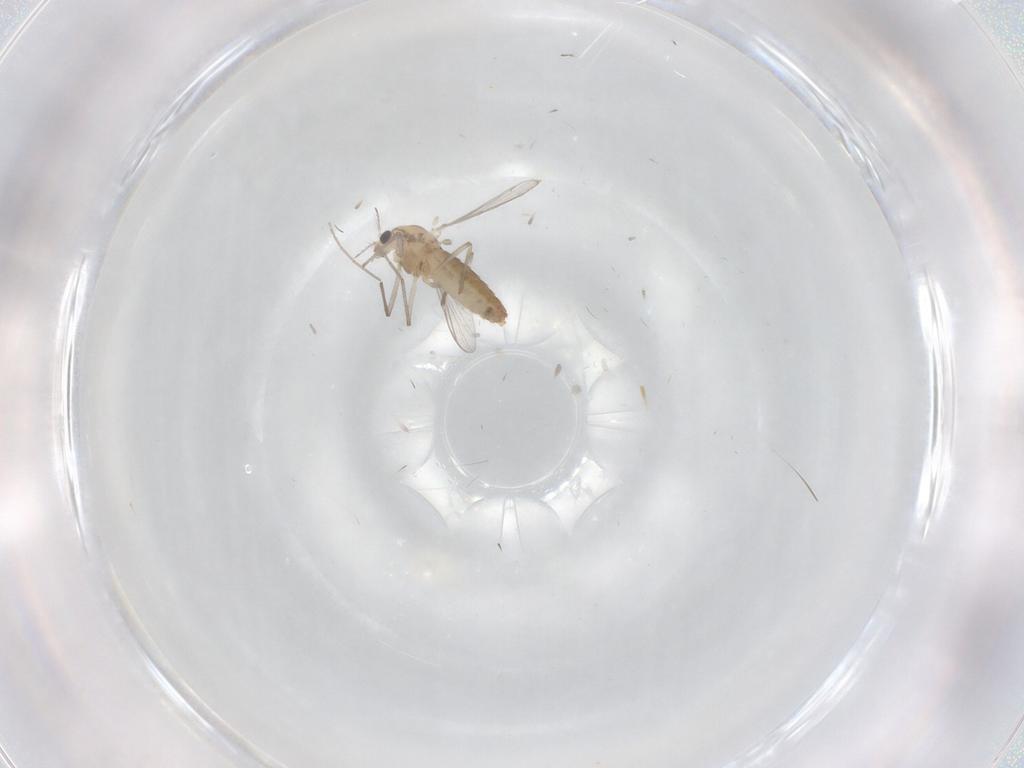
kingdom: Animalia
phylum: Arthropoda
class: Insecta
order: Diptera
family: Chironomidae
